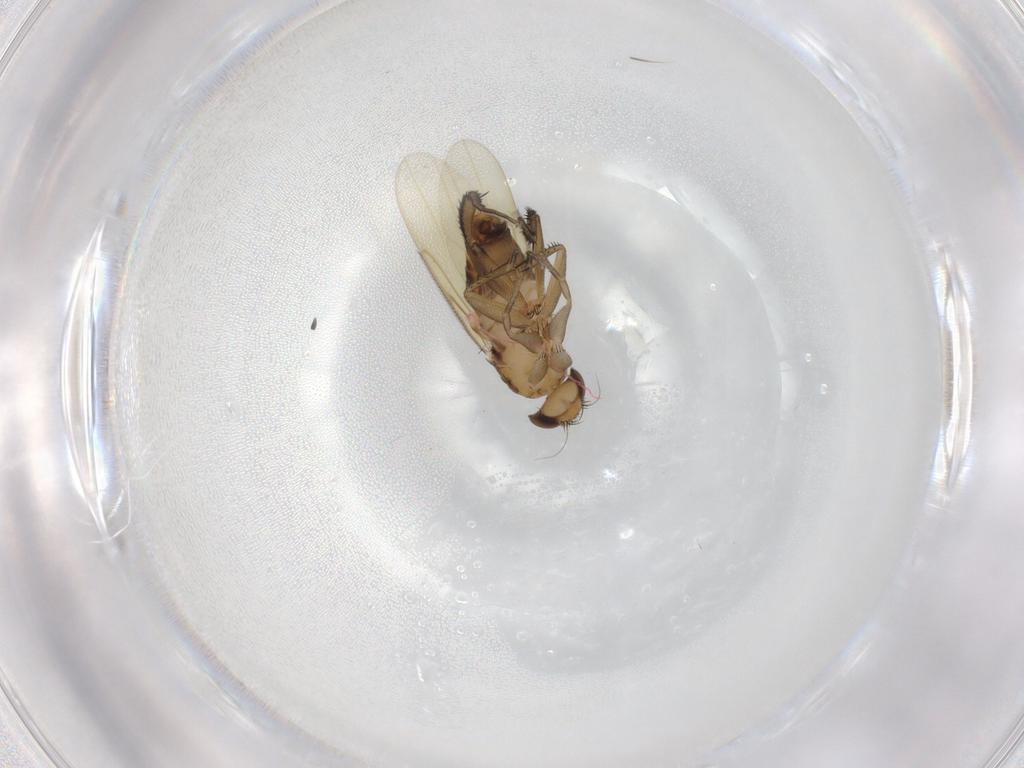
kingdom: Animalia
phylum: Arthropoda
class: Insecta
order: Diptera
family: Phoridae
